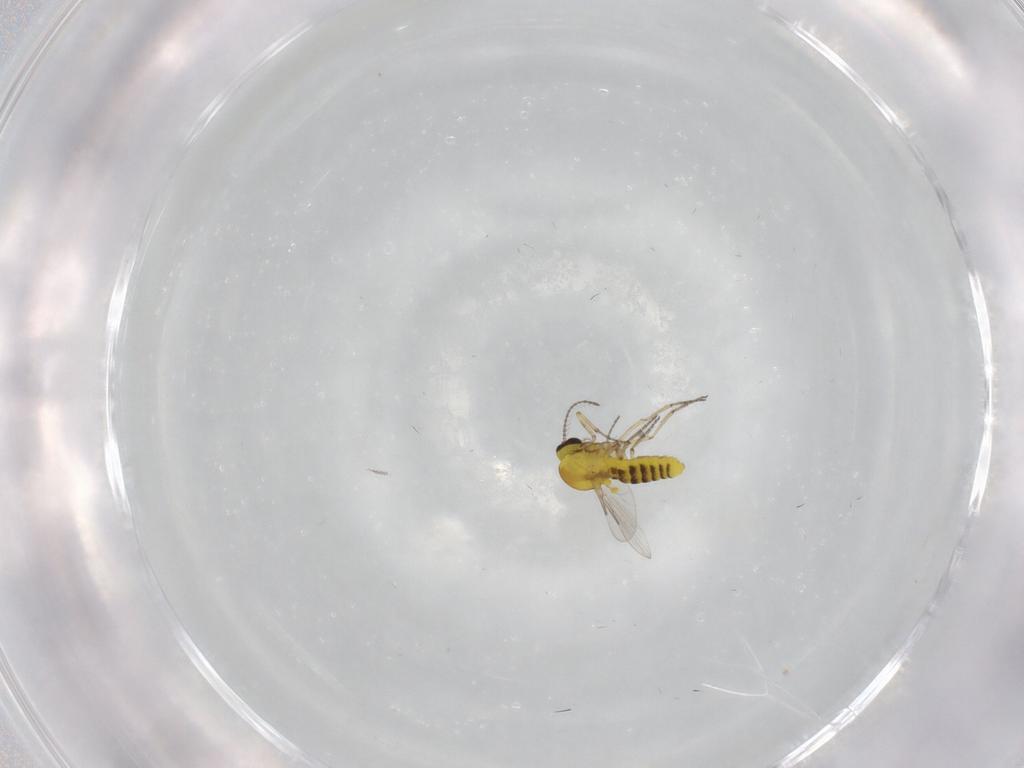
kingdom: Animalia
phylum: Arthropoda
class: Insecta
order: Diptera
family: Ceratopogonidae
